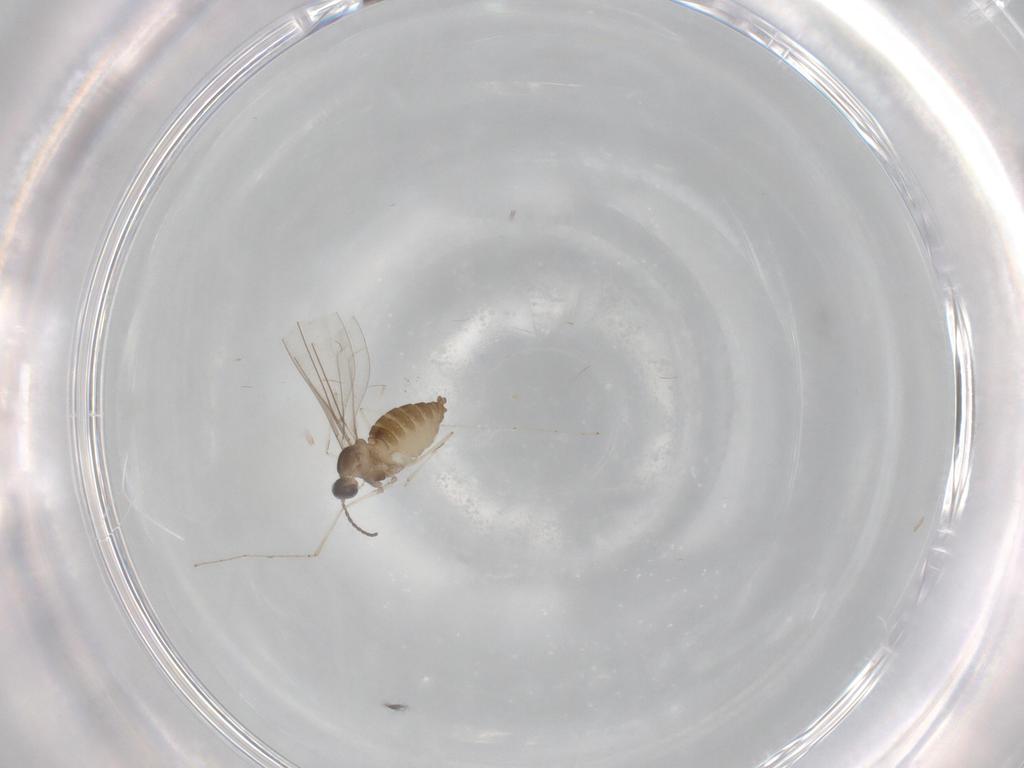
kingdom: Animalia
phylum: Arthropoda
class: Insecta
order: Diptera
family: Cecidomyiidae
